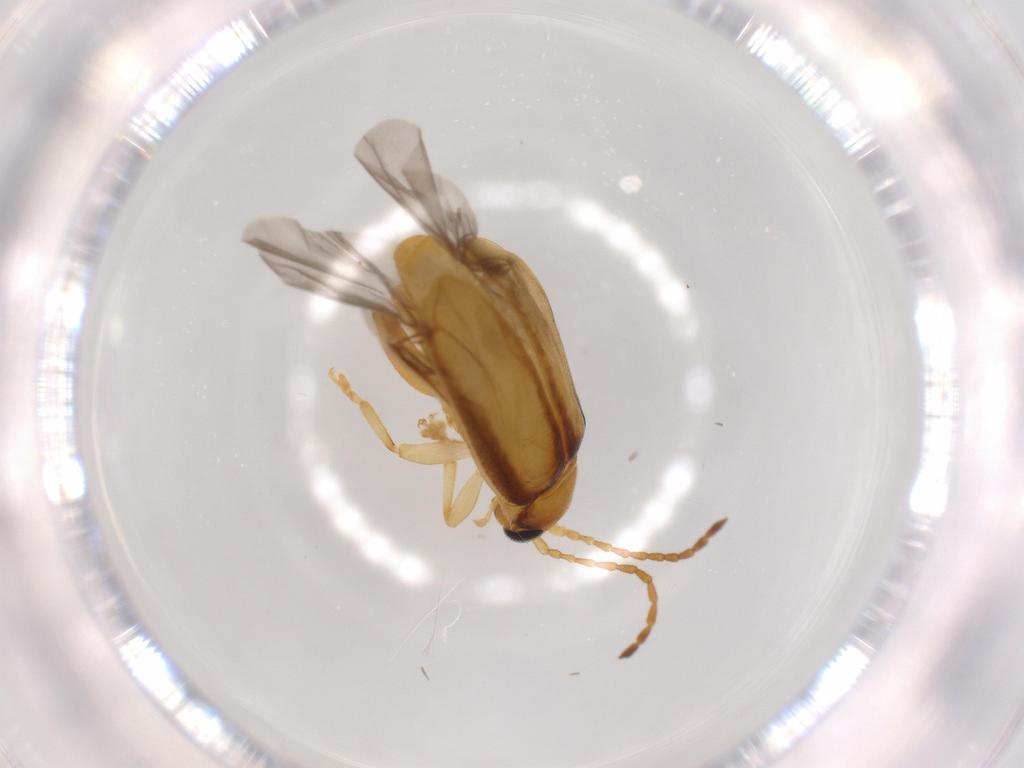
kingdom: Animalia
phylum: Arthropoda
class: Insecta
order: Coleoptera
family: Chrysomelidae
